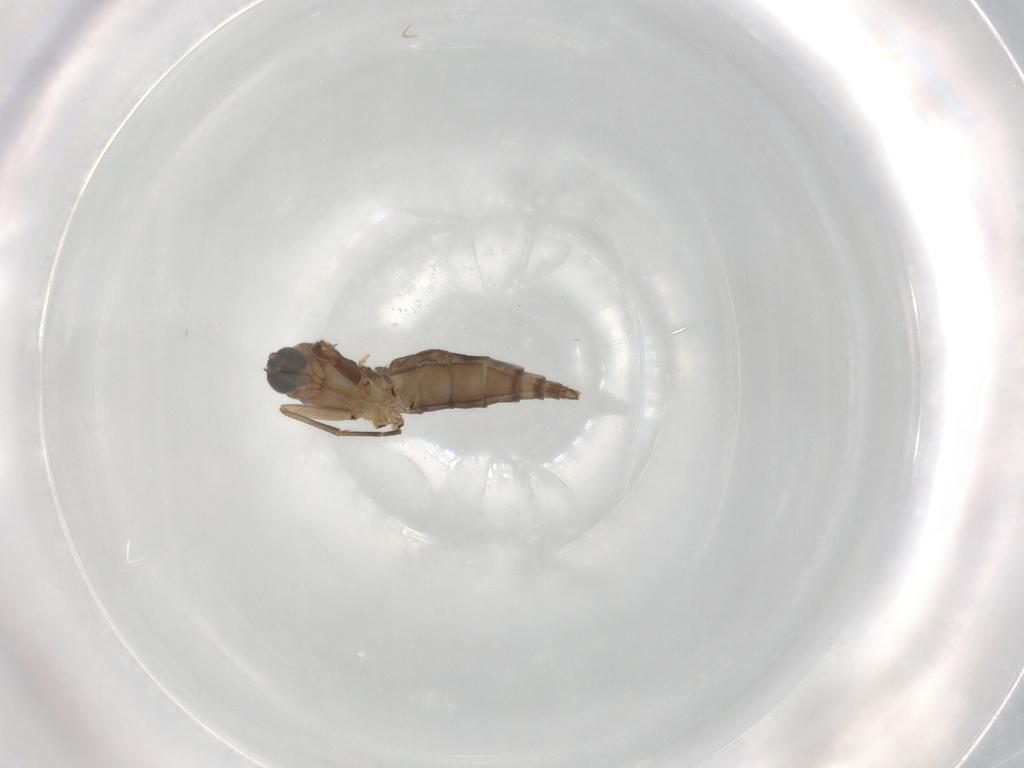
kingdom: Animalia
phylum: Arthropoda
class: Insecta
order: Diptera
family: Sciaridae
